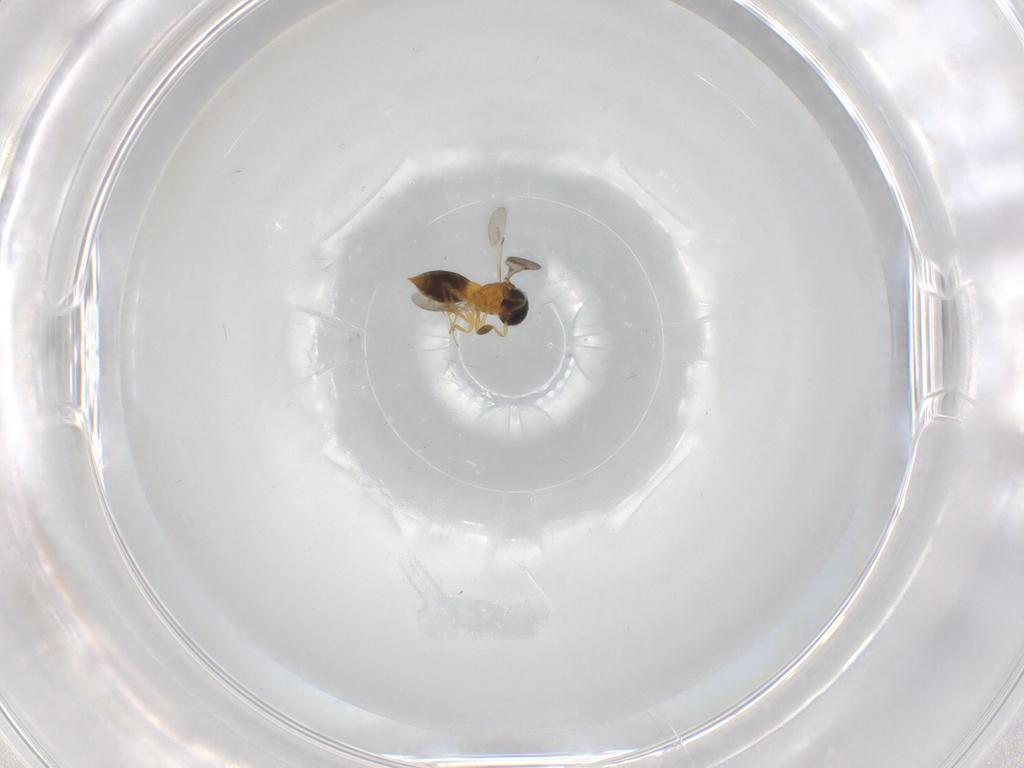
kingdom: Animalia
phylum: Arthropoda
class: Insecta
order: Hymenoptera
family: Scelionidae
